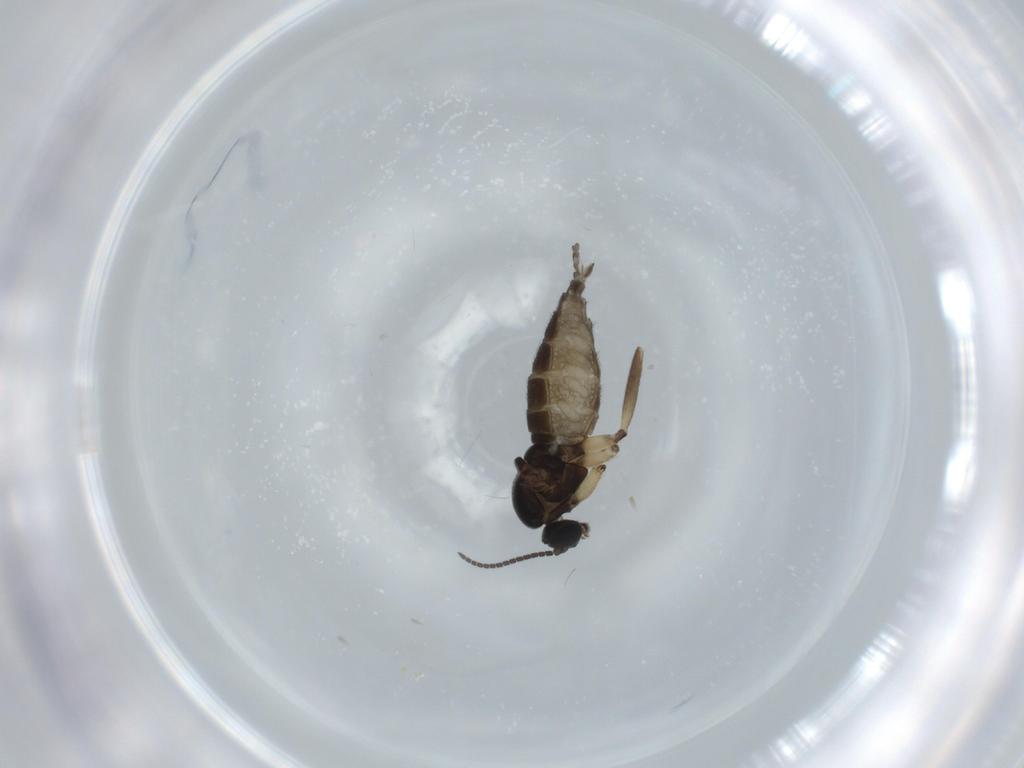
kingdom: Animalia
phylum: Arthropoda
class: Insecta
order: Diptera
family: Sciaridae
